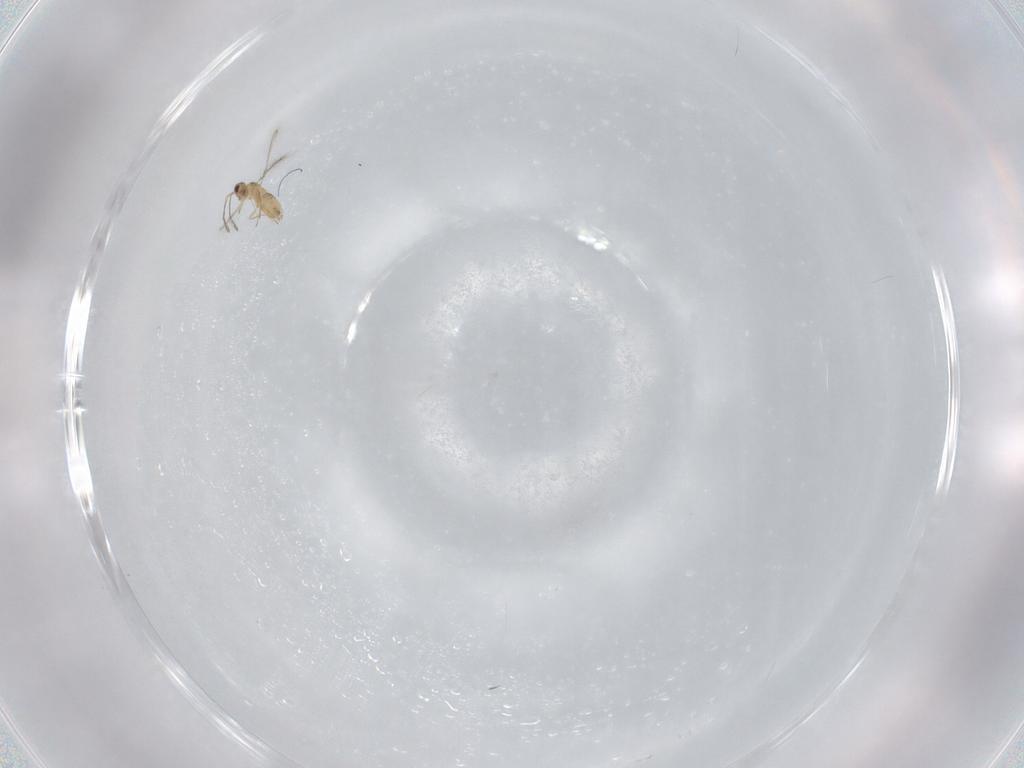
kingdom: Animalia
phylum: Arthropoda
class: Insecta
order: Hymenoptera
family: Mymaridae
